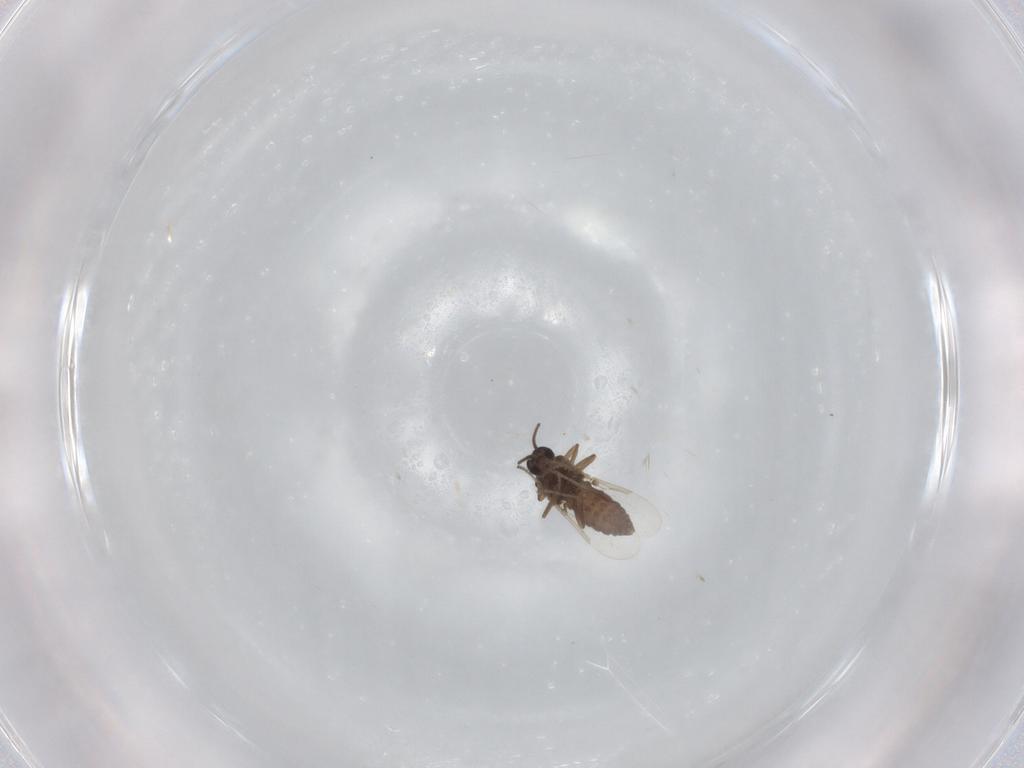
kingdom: Animalia
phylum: Arthropoda
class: Insecta
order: Diptera
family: Ceratopogonidae
